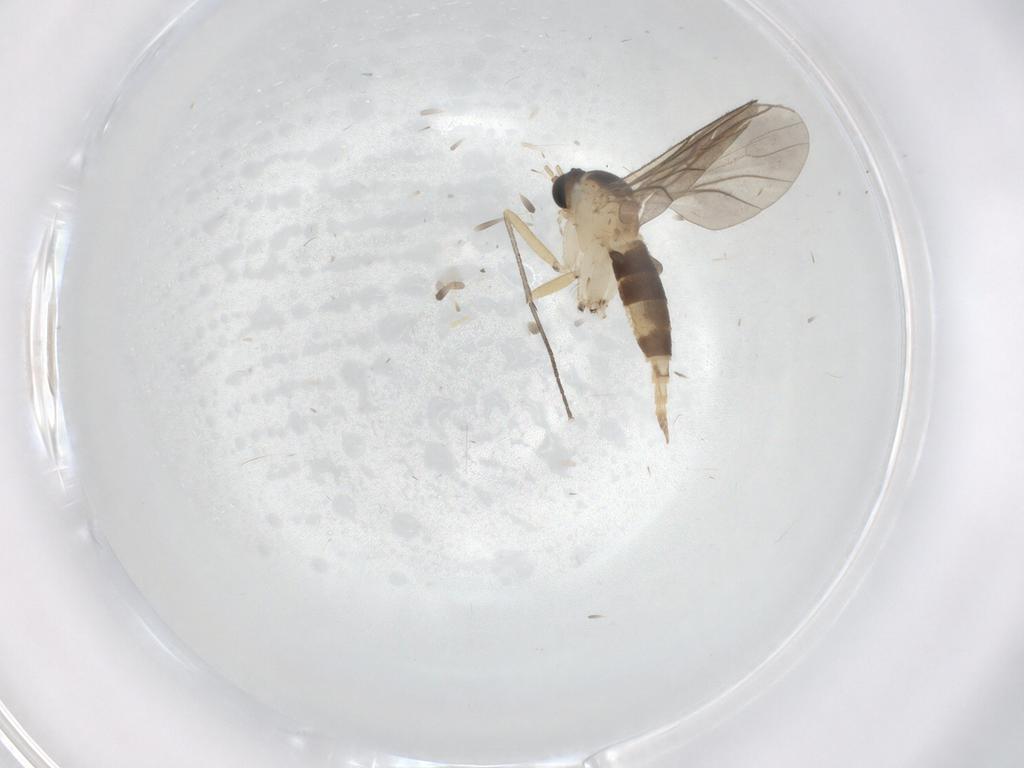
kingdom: Animalia
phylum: Arthropoda
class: Insecta
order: Diptera
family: Sciaridae
